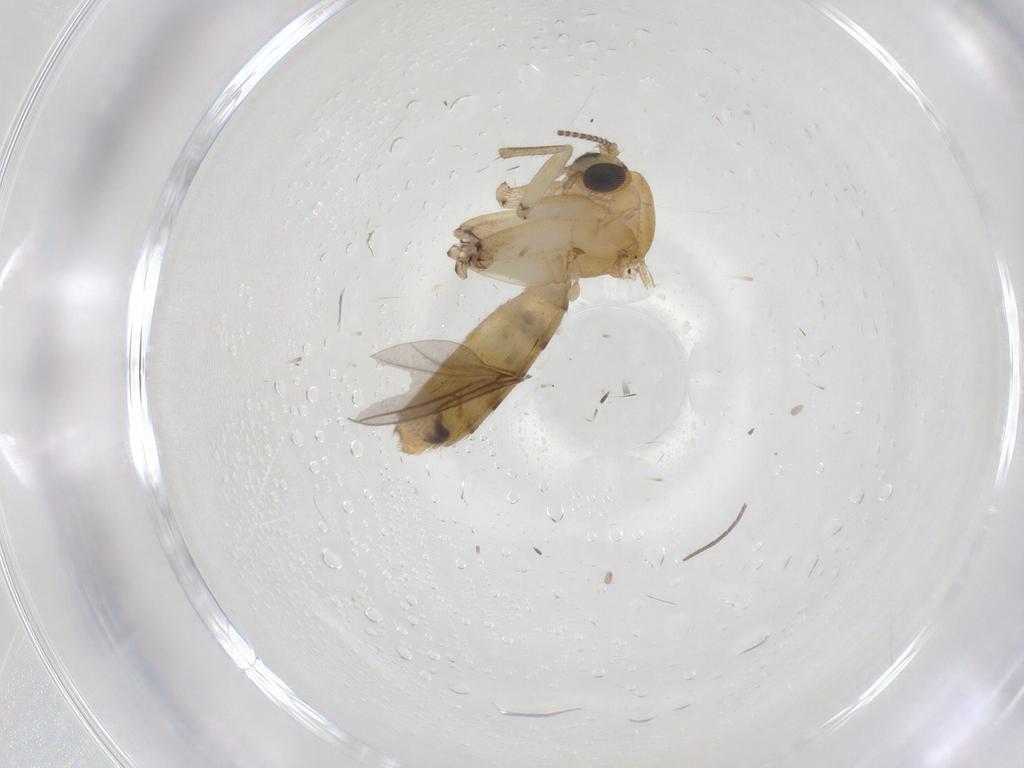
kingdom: Animalia
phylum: Arthropoda
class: Insecta
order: Diptera
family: Mycetophilidae
